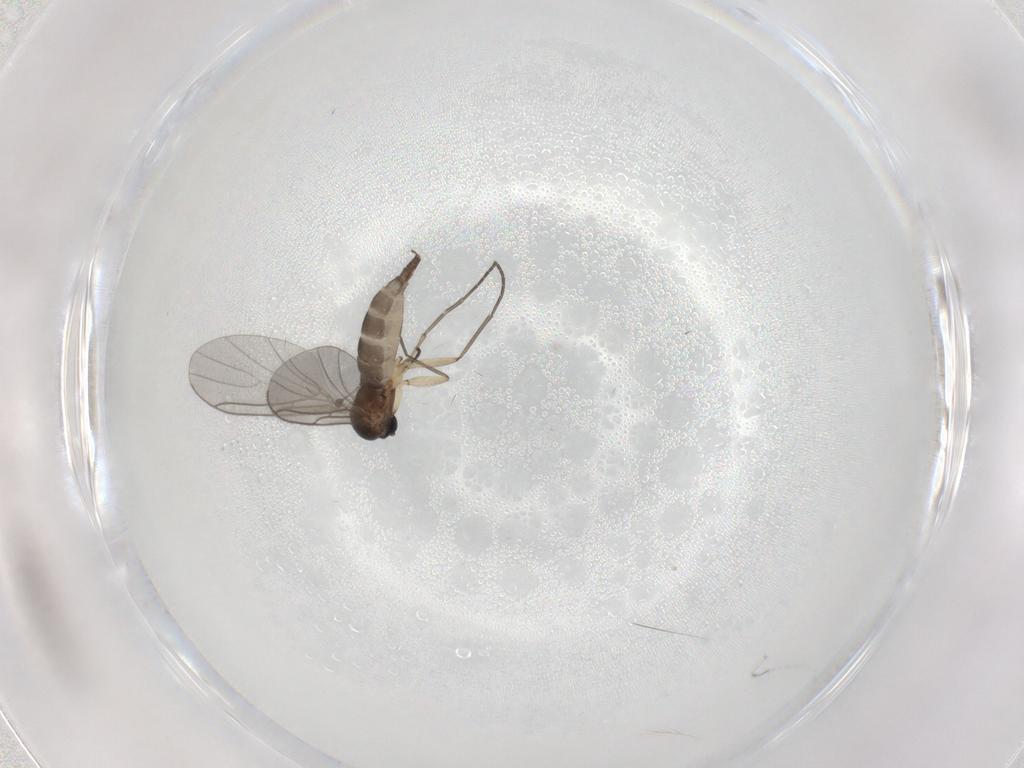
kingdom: Animalia
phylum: Arthropoda
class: Insecta
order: Diptera
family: Sciaridae
